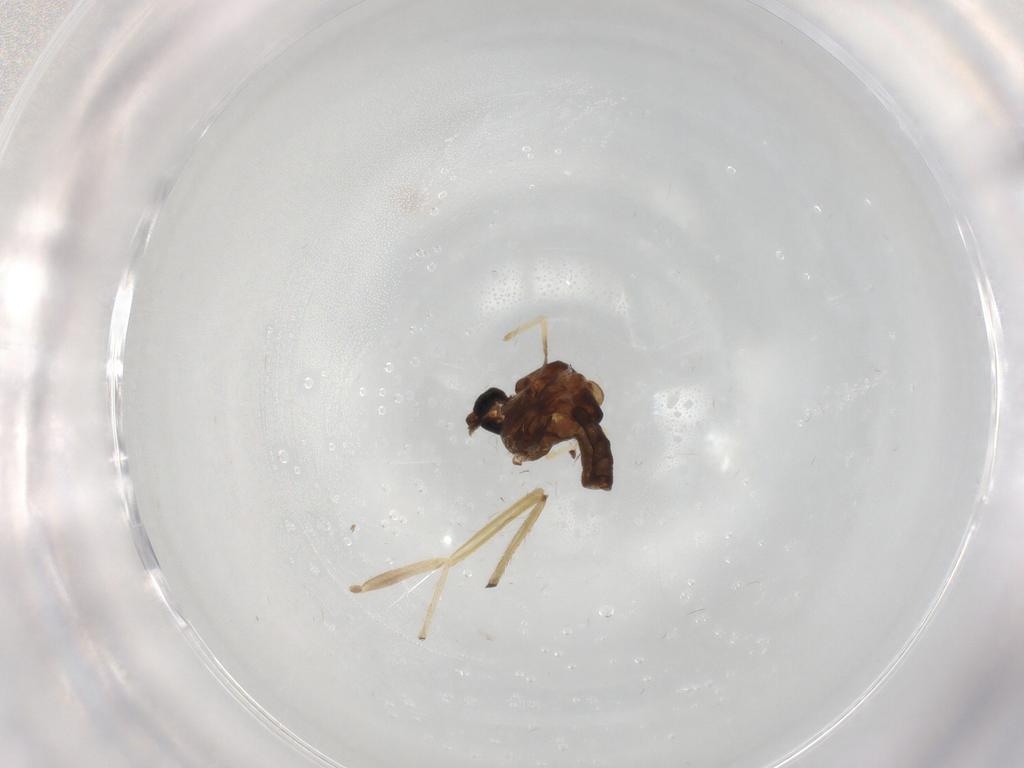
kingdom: Animalia
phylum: Arthropoda
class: Insecta
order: Diptera
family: Chironomidae
